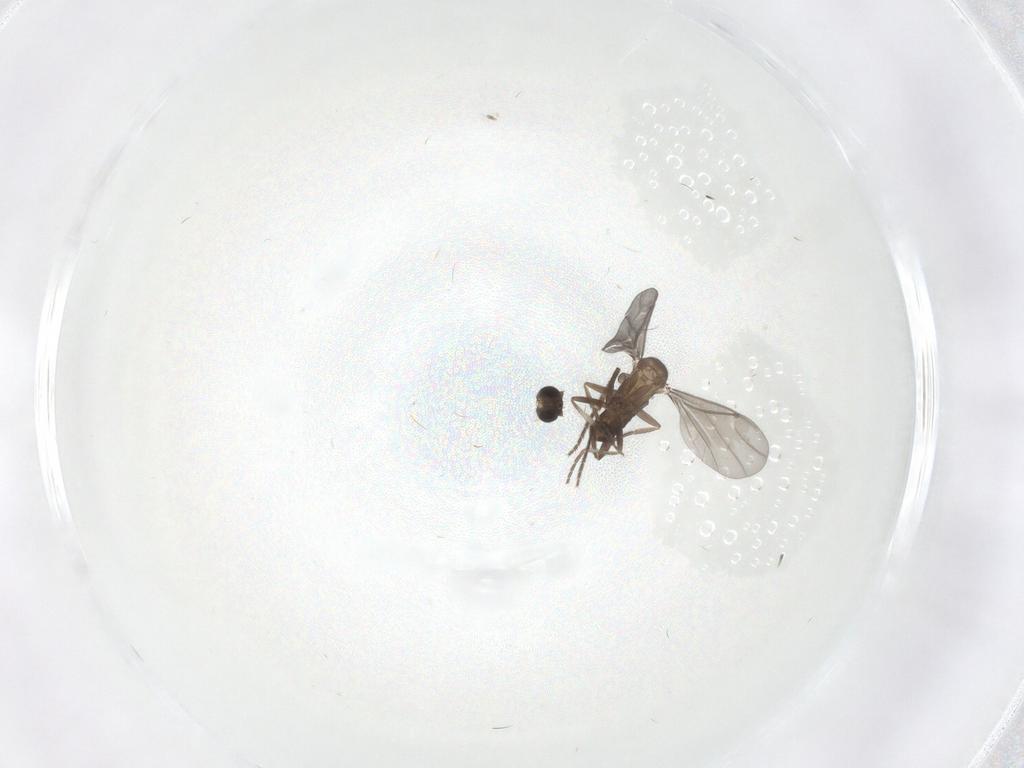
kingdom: Animalia
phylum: Arthropoda
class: Insecta
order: Diptera
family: Phoridae
